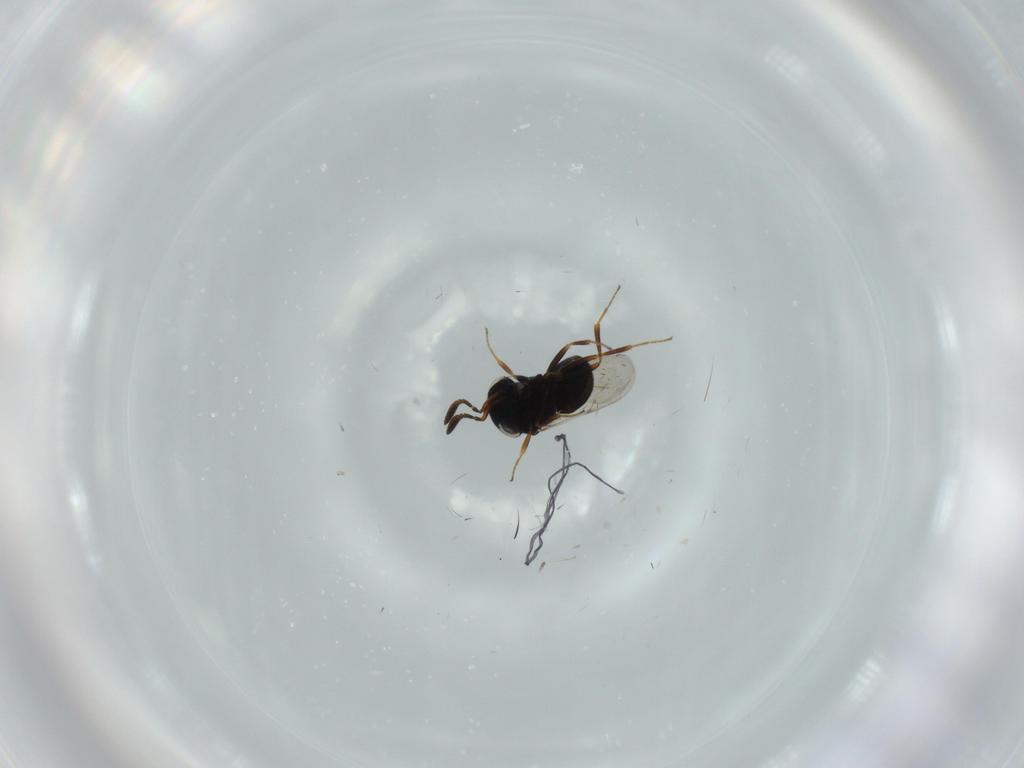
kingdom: Animalia
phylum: Arthropoda
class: Insecta
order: Hymenoptera
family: Scelionidae
